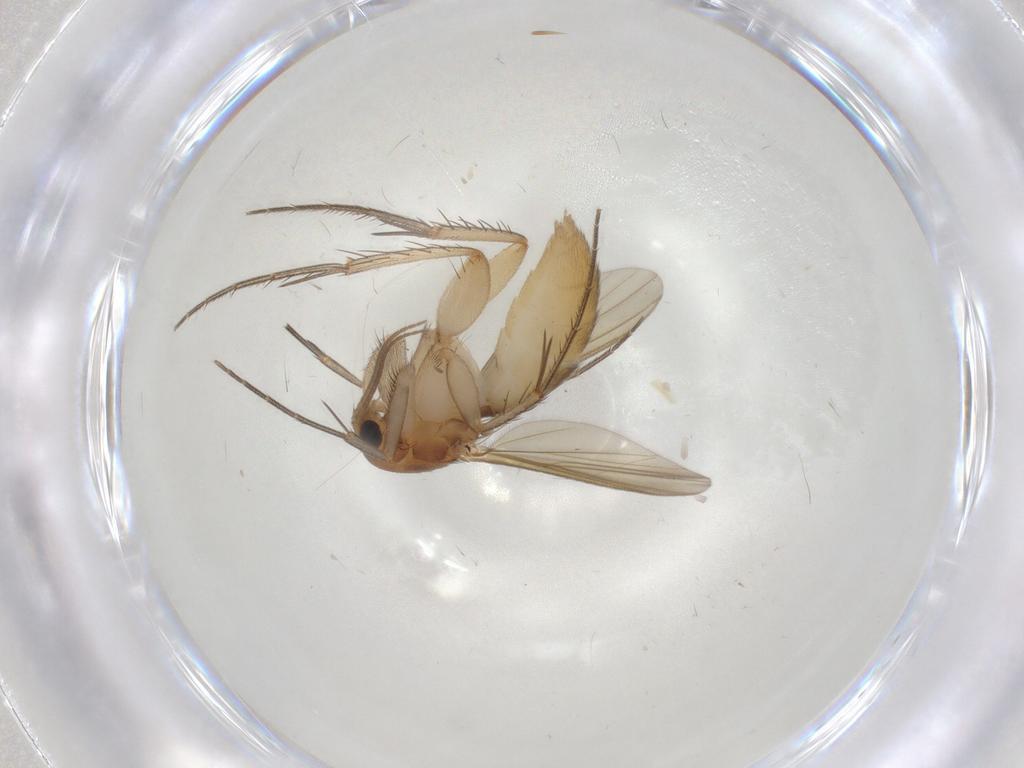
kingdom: Animalia
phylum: Arthropoda
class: Insecta
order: Diptera
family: Mycetophilidae
